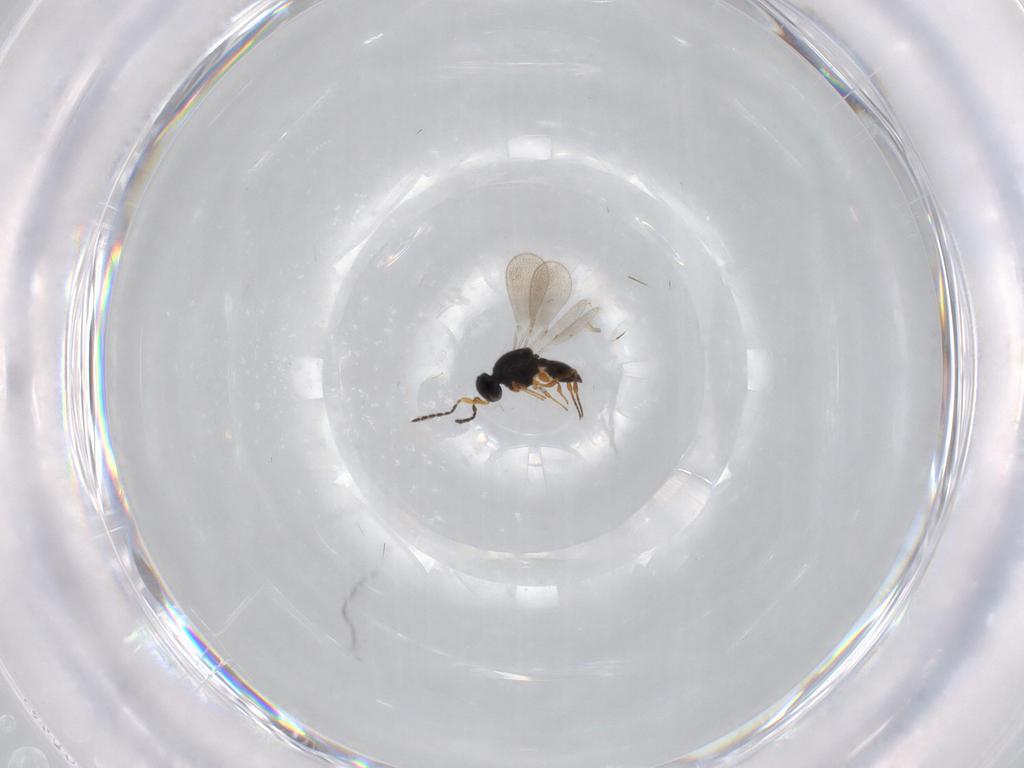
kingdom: Animalia
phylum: Arthropoda
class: Insecta
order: Hymenoptera
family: Platygastridae
